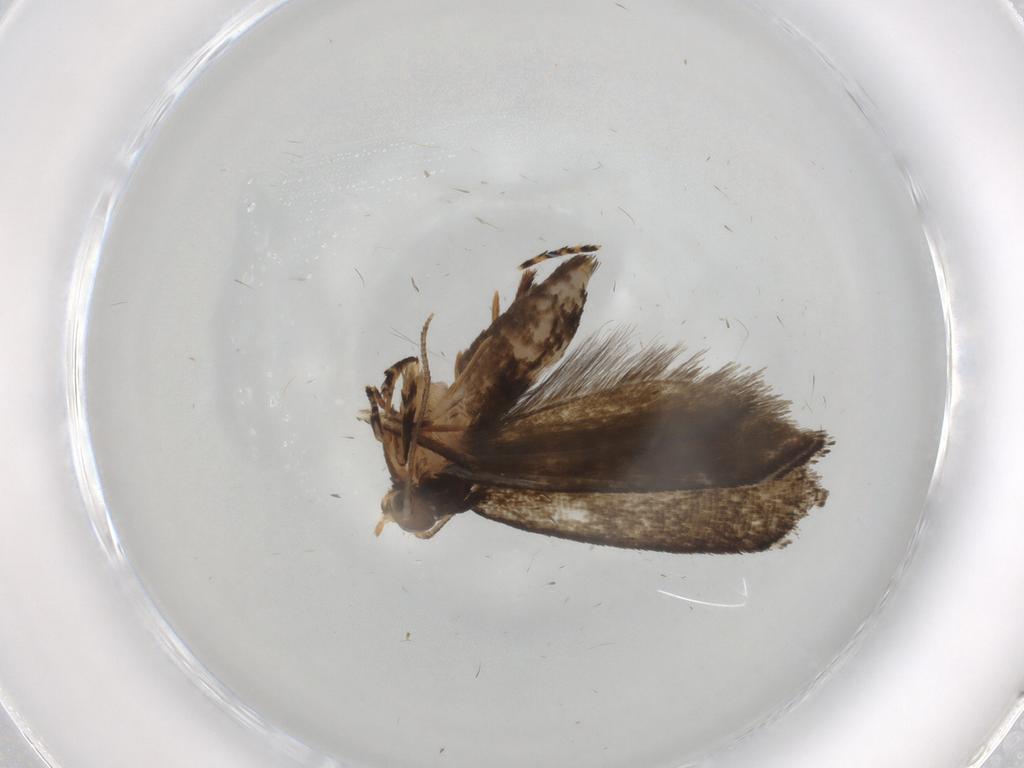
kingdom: Animalia
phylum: Arthropoda
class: Insecta
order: Lepidoptera
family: Crambidae
